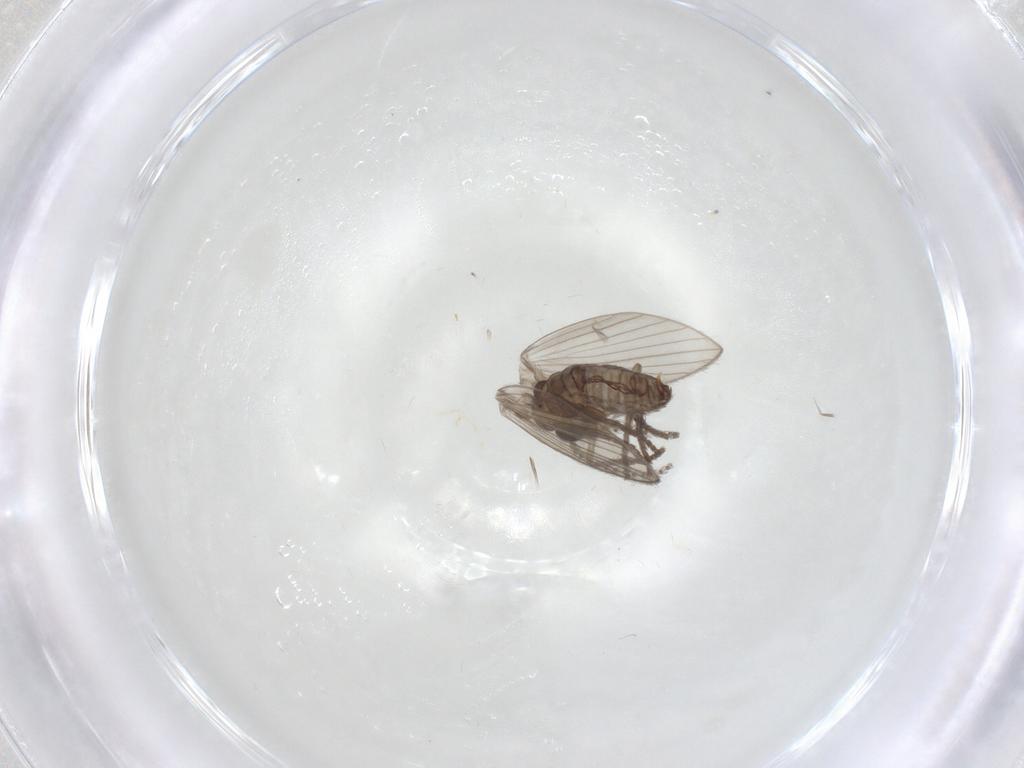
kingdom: Animalia
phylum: Arthropoda
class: Insecta
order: Diptera
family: Psychodidae
